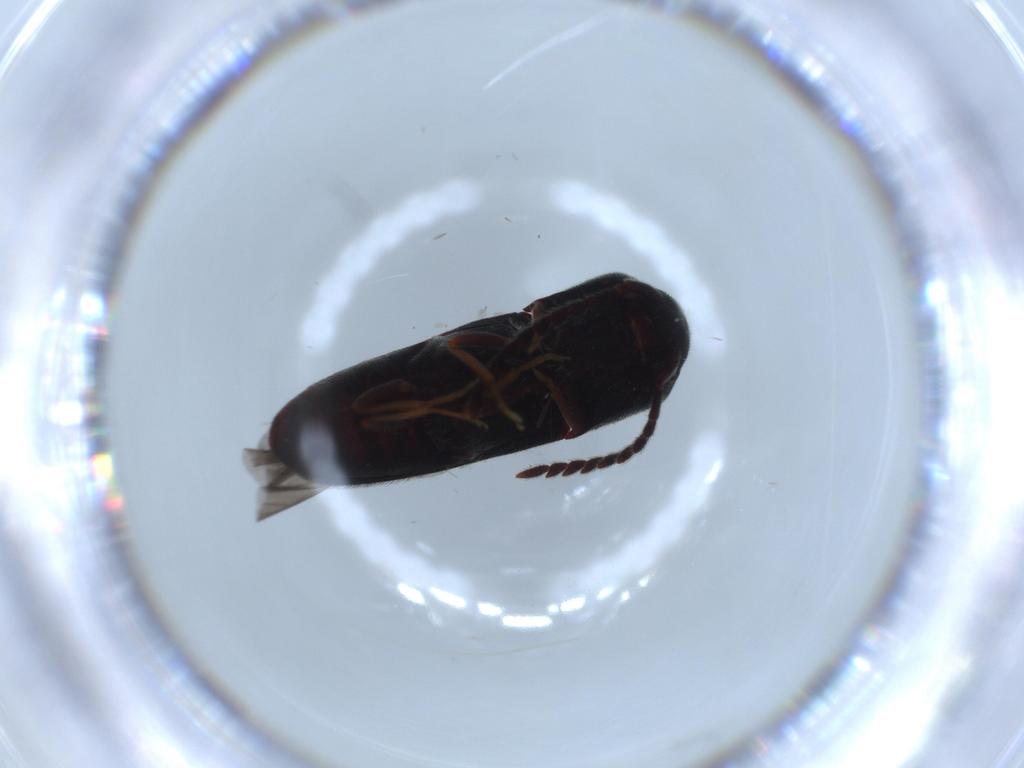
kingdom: Animalia
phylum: Arthropoda
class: Insecta
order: Coleoptera
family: Eucnemidae
